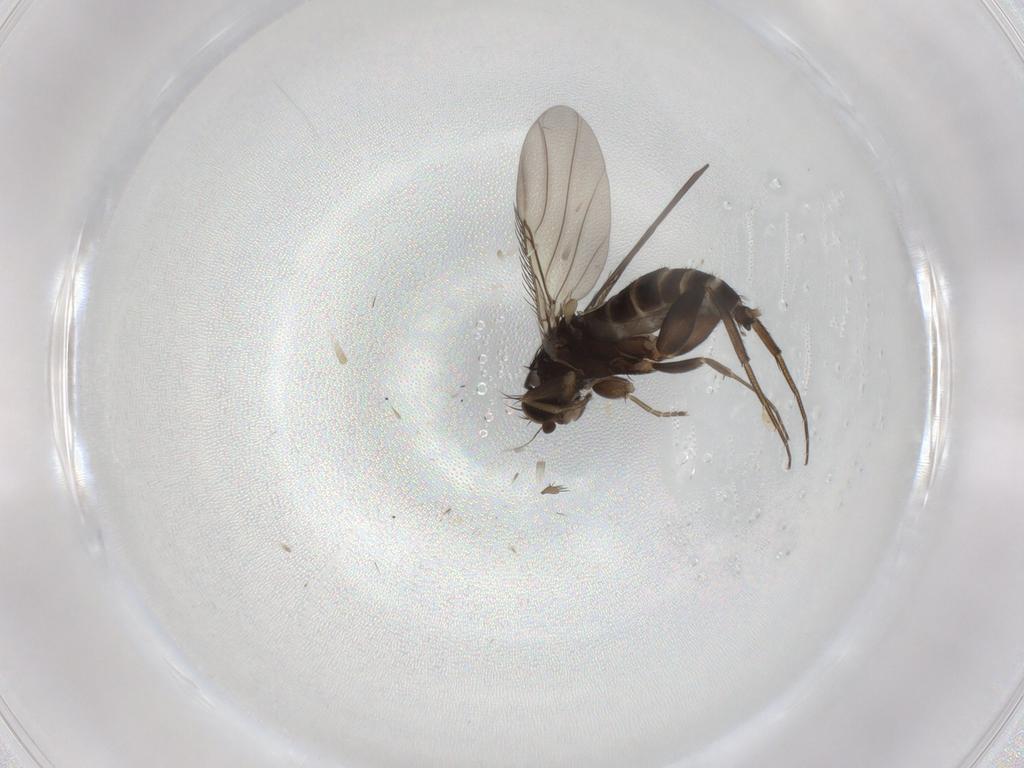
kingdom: Animalia
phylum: Arthropoda
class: Insecta
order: Diptera
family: Phoridae
